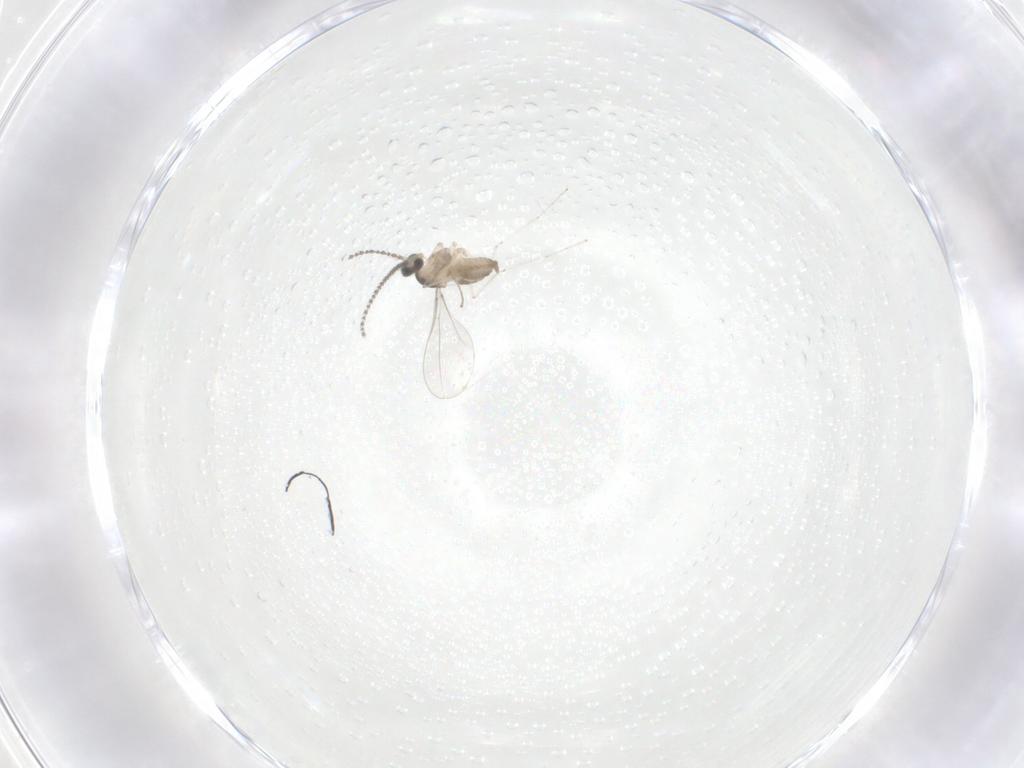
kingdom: Animalia
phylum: Arthropoda
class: Insecta
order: Diptera
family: Cecidomyiidae
